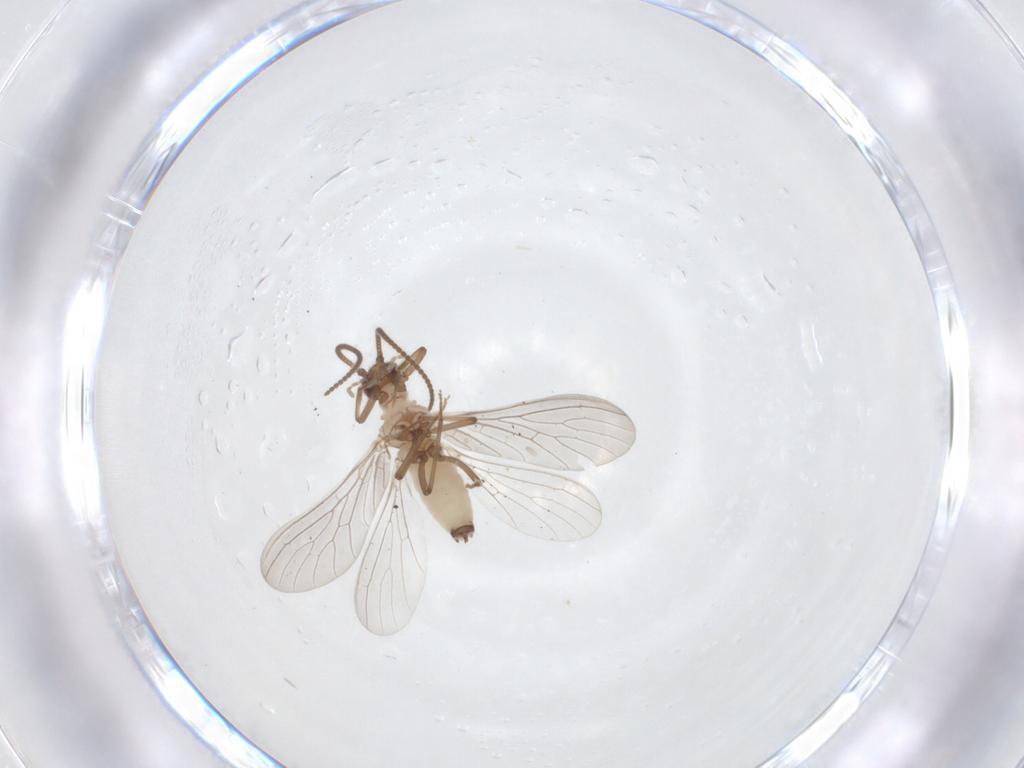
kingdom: Animalia
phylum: Arthropoda
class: Insecta
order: Neuroptera
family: Coniopterygidae
